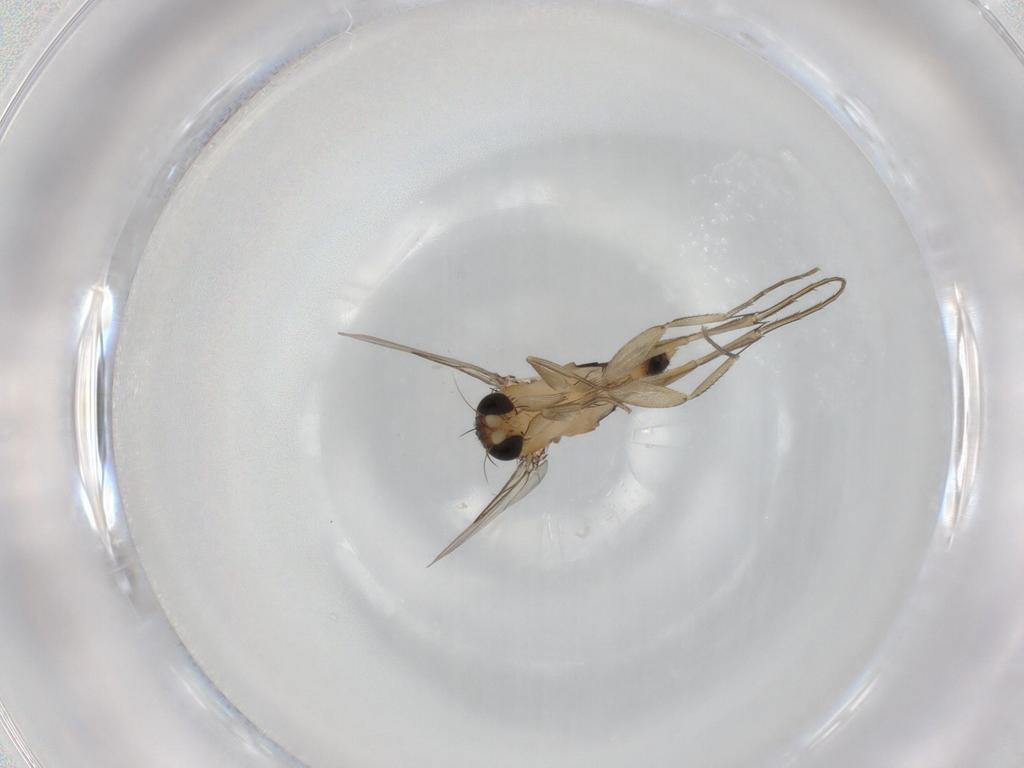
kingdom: Animalia
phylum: Arthropoda
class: Insecta
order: Diptera
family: Phoridae
